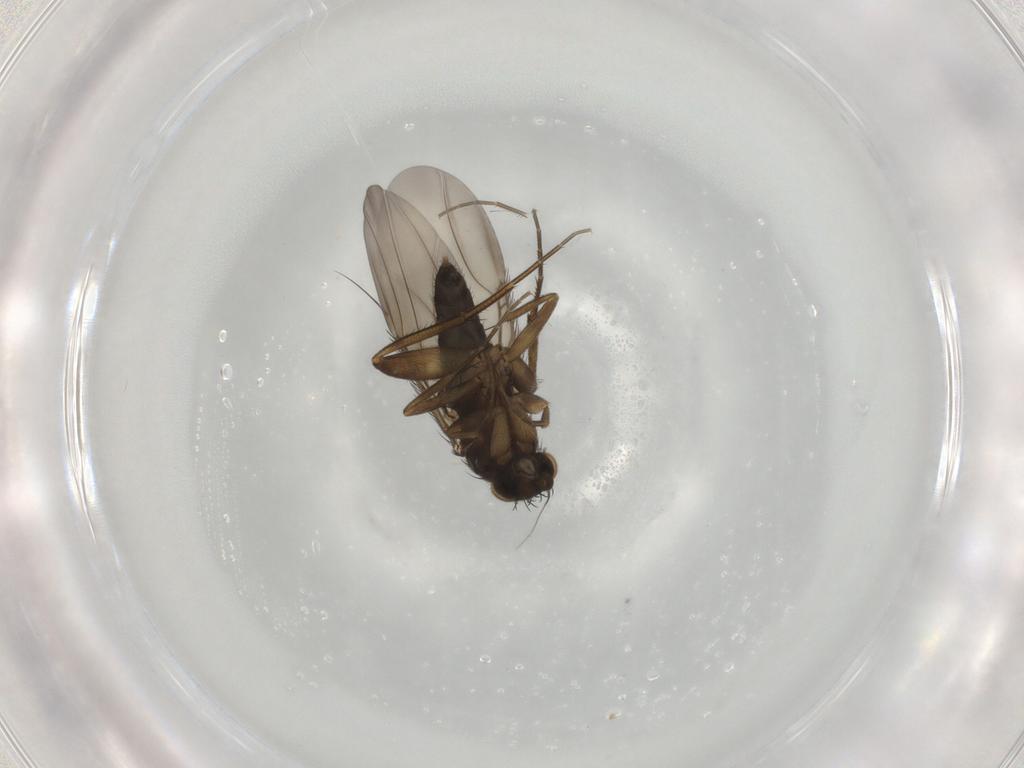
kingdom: Animalia
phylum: Arthropoda
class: Insecta
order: Diptera
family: Phoridae
